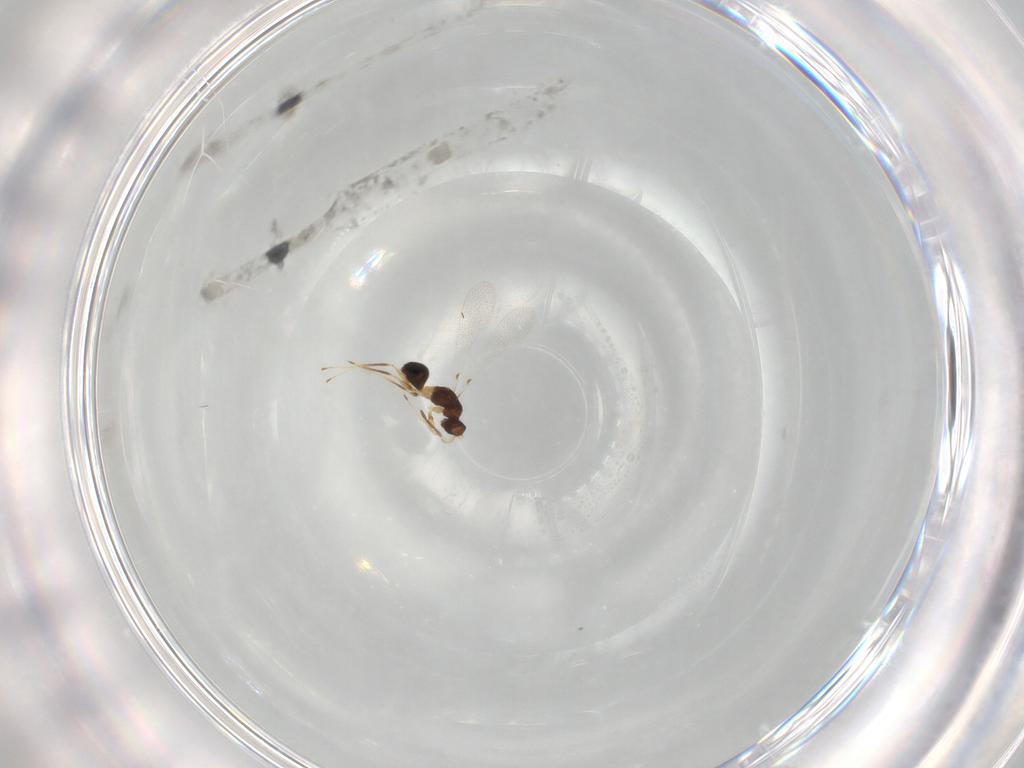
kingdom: Animalia
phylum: Arthropoda
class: Insecta
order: Hymenoptera
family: Mymaridae
